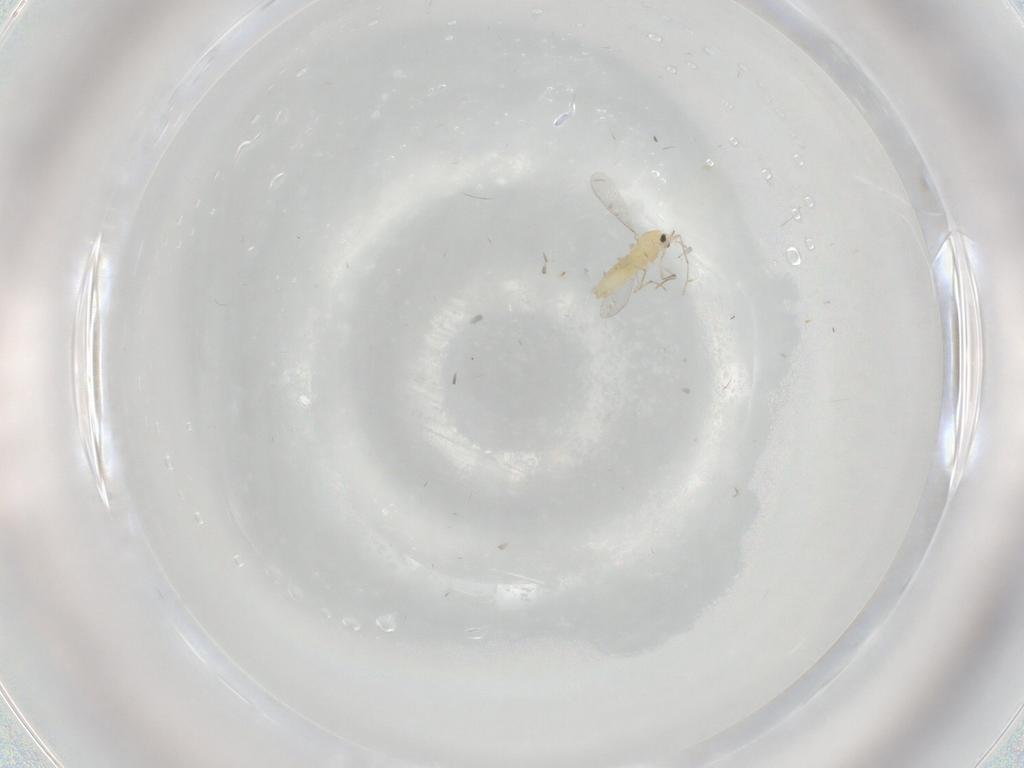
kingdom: Animalia
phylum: Arthropoda
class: Insecta
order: Diptera
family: Chironomidae
